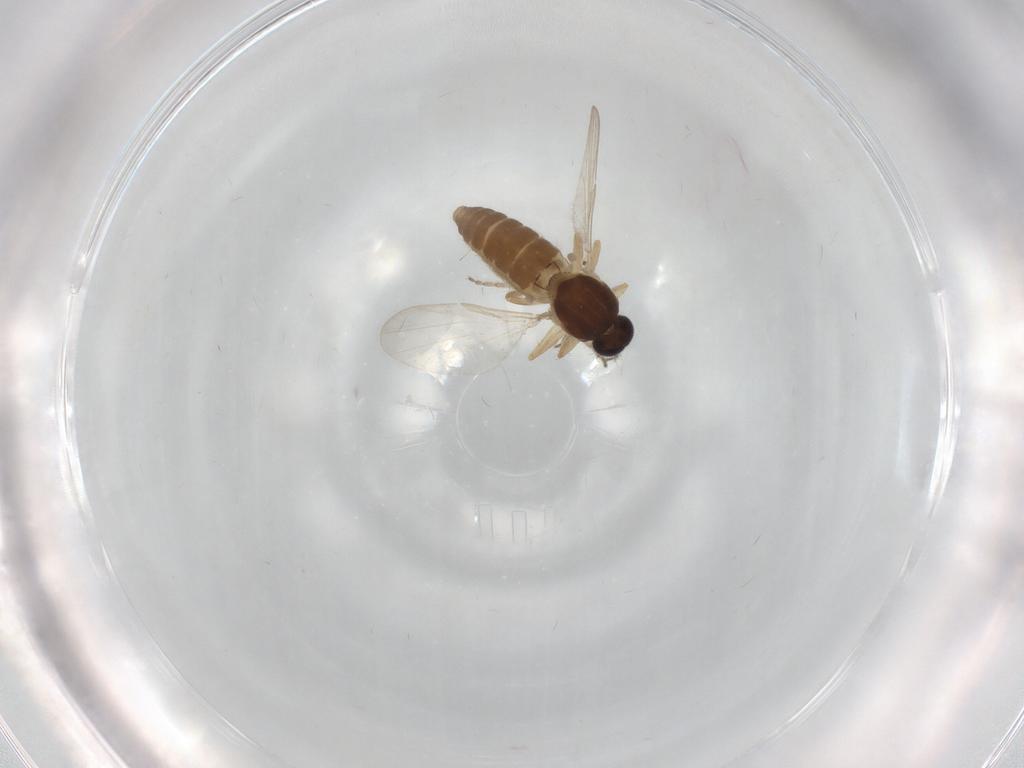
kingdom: Animalia
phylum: Arthropoda
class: Insecta
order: Diptera
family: Ceratopogonidae
